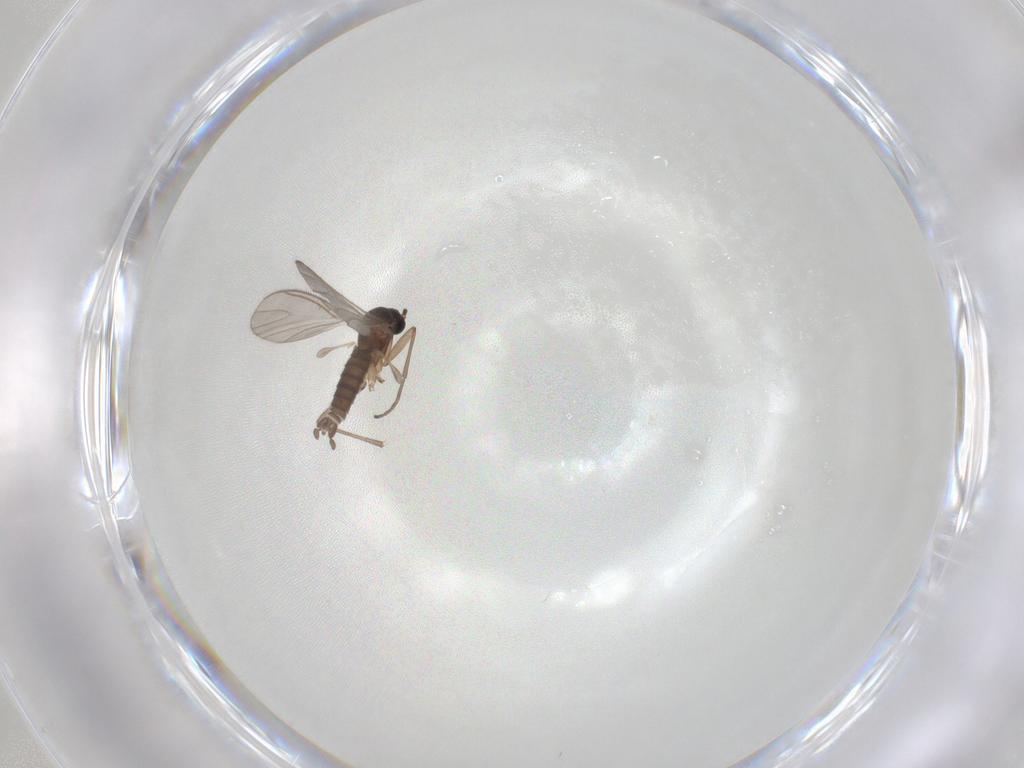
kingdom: Animalia
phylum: Arthropoda
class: Insecta
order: Diptera
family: Sciaridae
